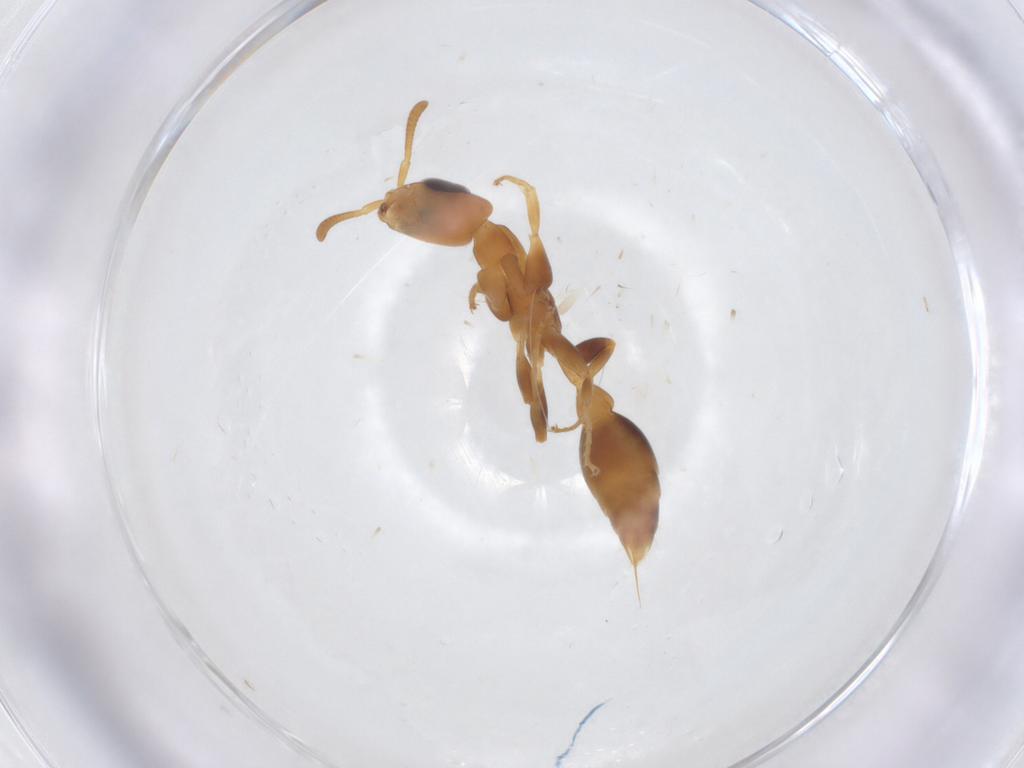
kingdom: Animalia
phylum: Arthropoda
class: Insecta
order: Hymenoptera
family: Formicidae
